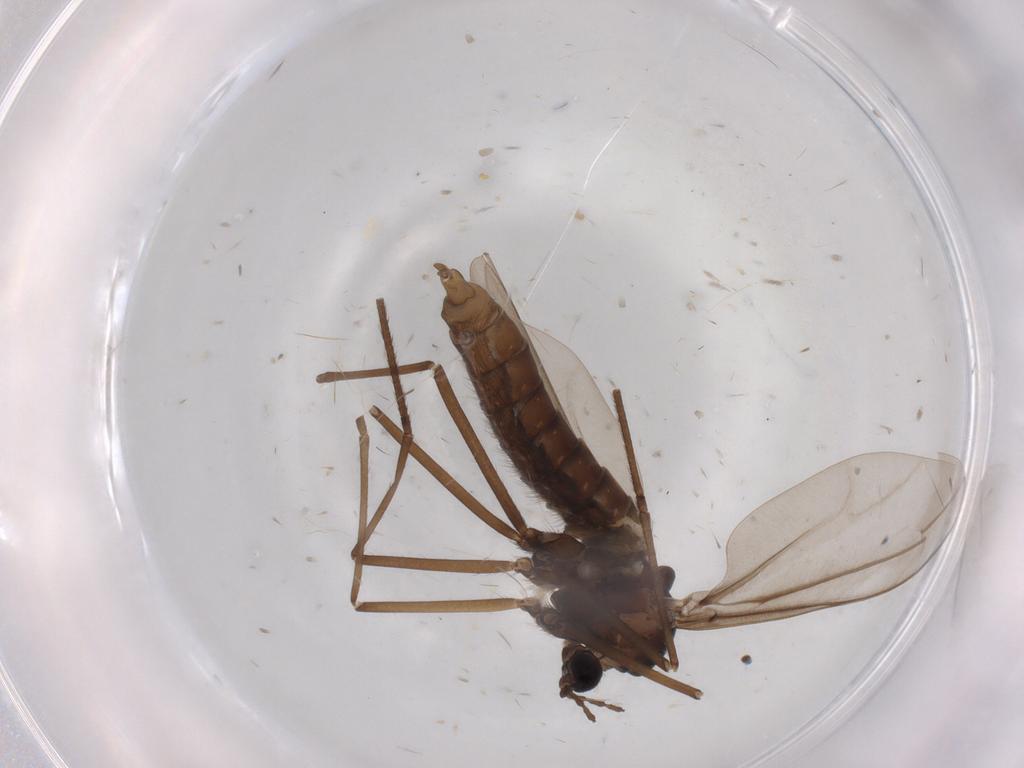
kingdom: Animalia
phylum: Arthropoda
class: Insecta
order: Diptera
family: Cecidomyiidae
